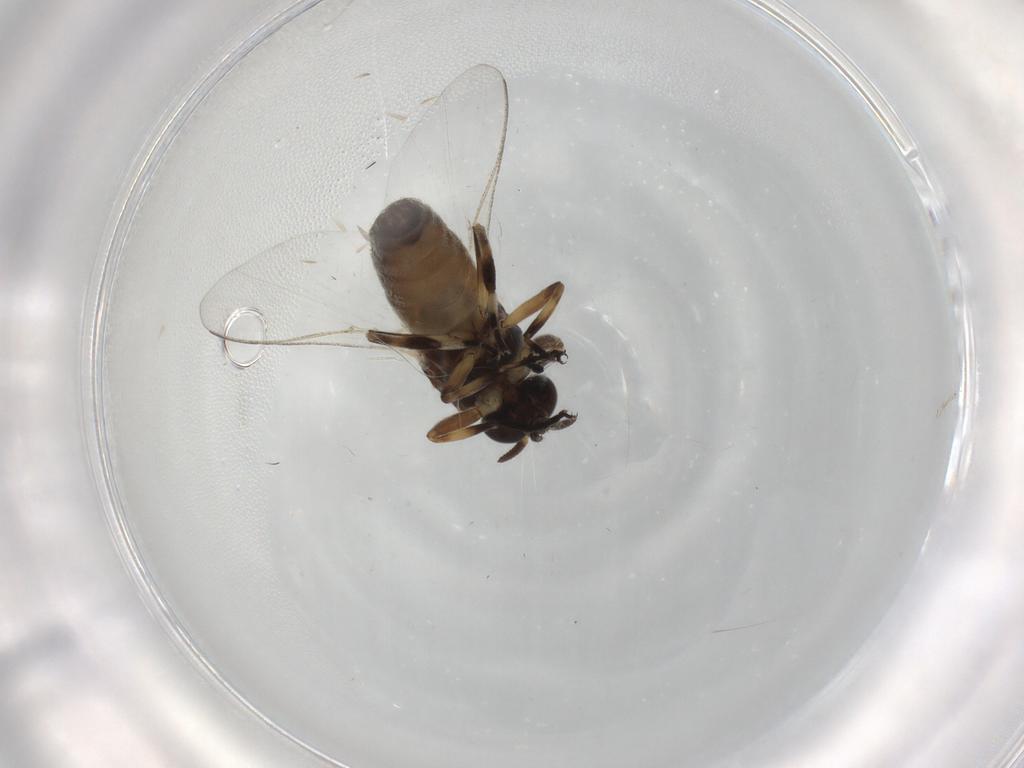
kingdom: Animalia
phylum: Arthropoda
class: Insecta
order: Diptera
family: Cecidomyiidae
